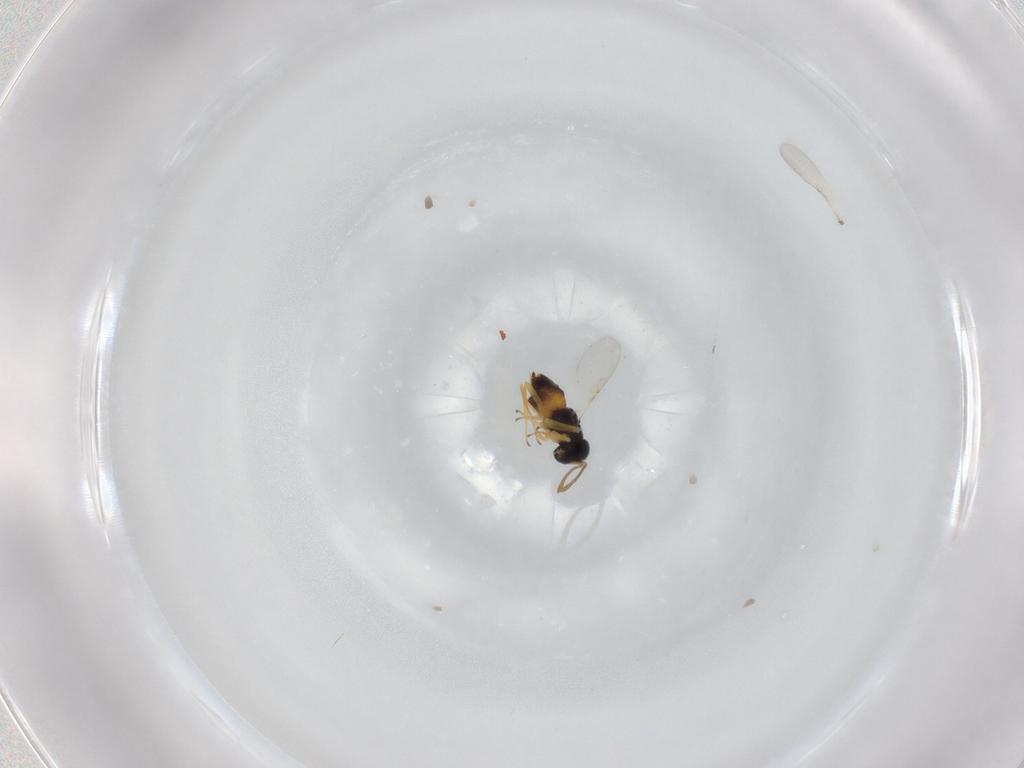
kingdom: Animalia
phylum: Arthropoda
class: Insecta
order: Hymenoptera
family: Encyrtidae
